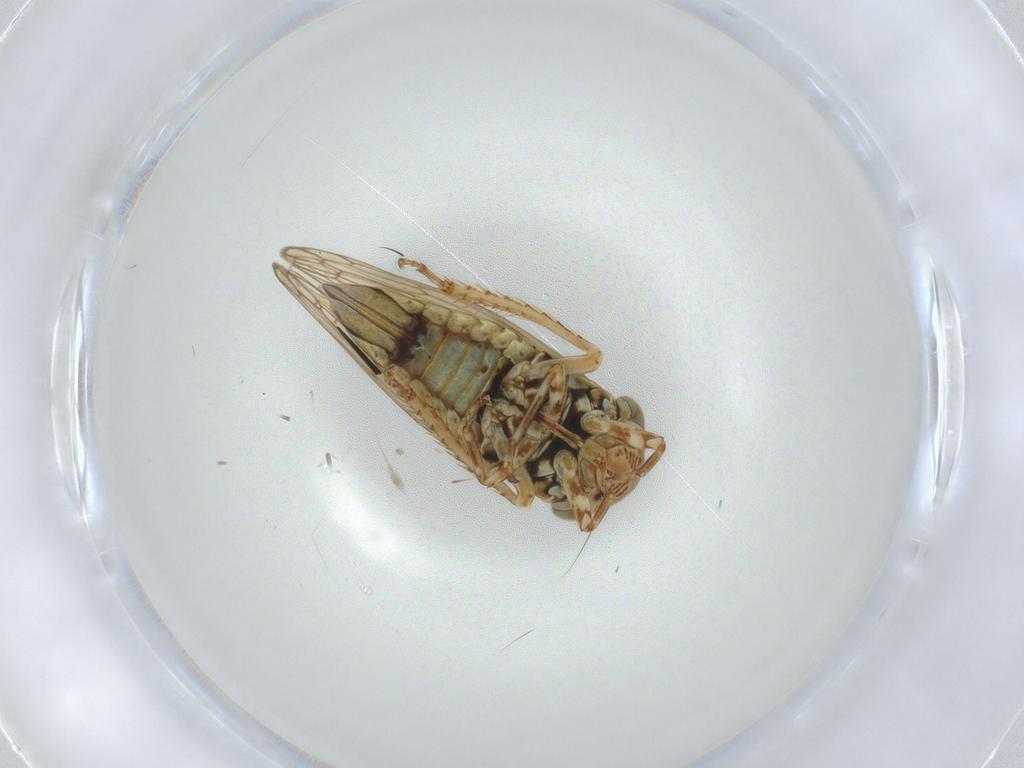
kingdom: Animalia
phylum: Arthropoda
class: Insecta
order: Hemiptera
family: Cicadellidae
